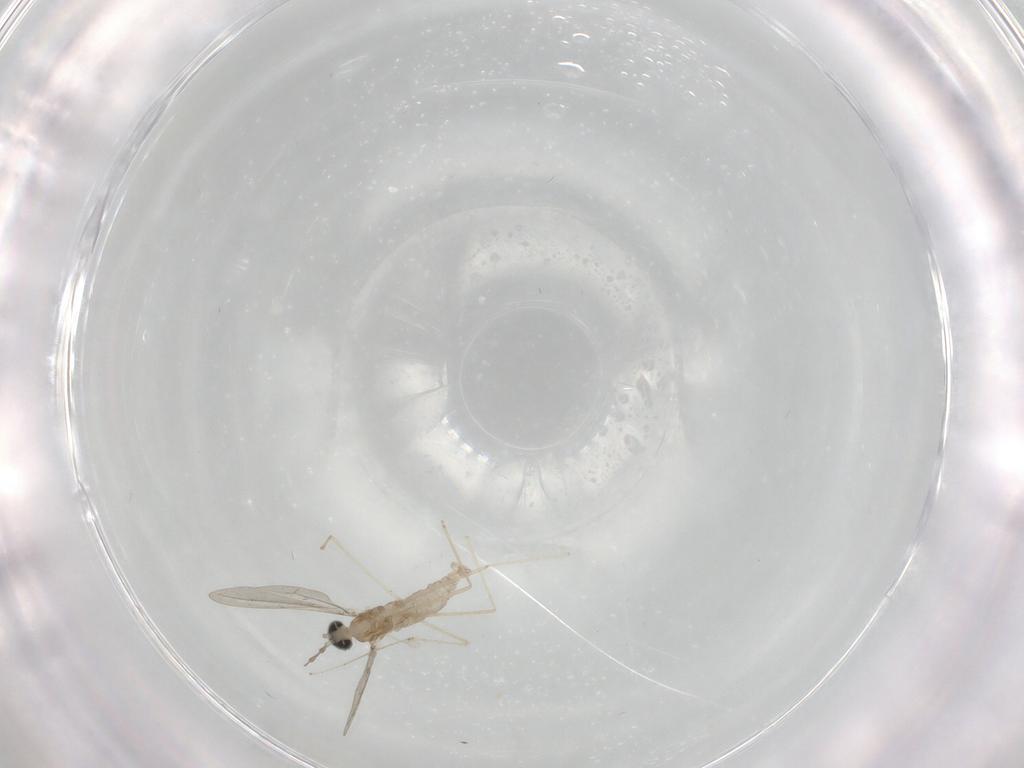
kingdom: Animalia
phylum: Arthropoda
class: Insecta
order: Diptera
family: Cecidomyiidae
